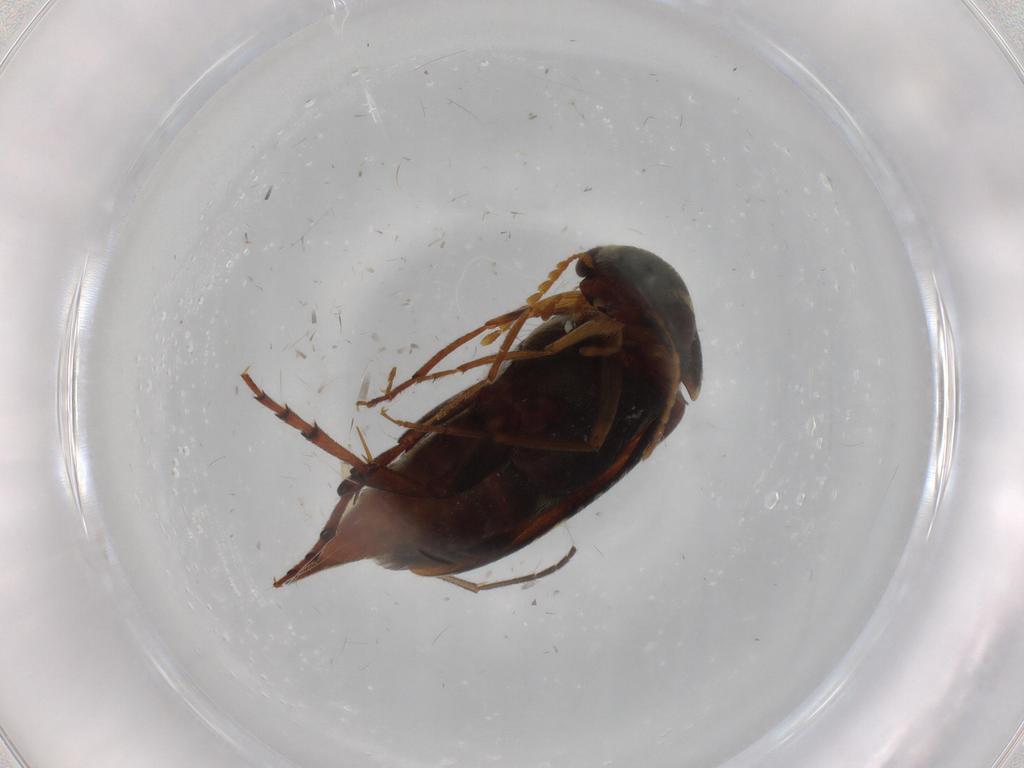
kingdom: Animalia
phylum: Arthropoda
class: Insecta
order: Coleoptera
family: Mordellidae
